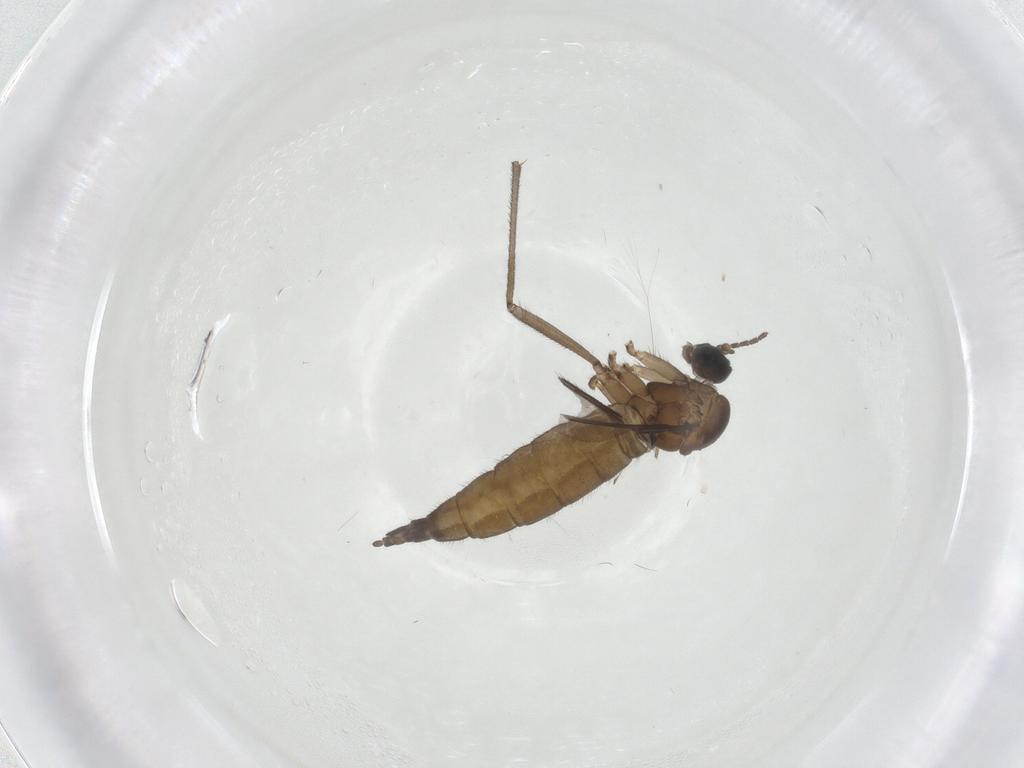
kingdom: Animalia
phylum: Arthropoda
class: Insecta
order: Diptera
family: Sciaridae
